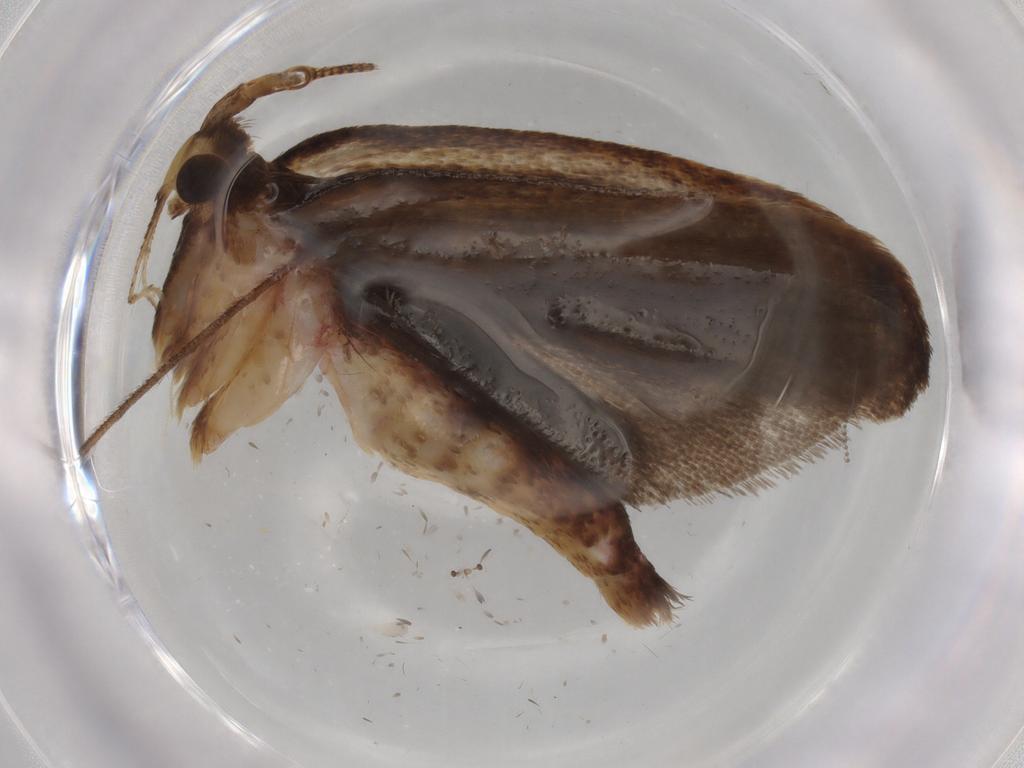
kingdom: Animalia
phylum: Arthropoda
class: Insecta
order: Lepidoptera
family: Autostichidae
